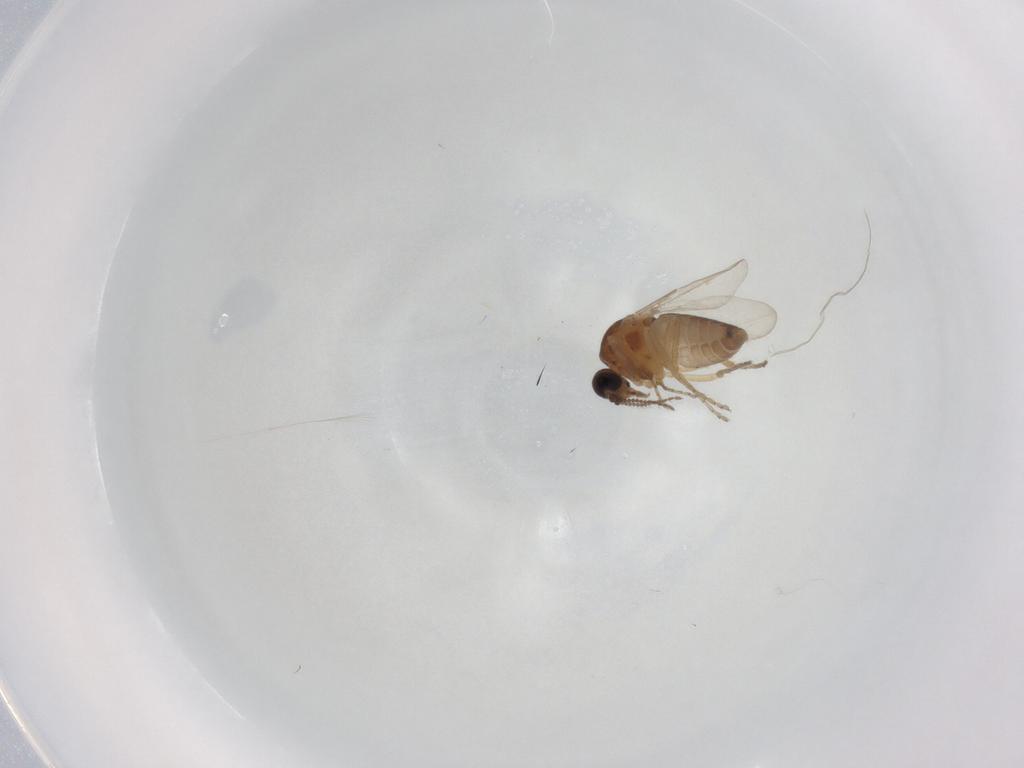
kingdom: Animalia
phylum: Arthropoda
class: Insecta
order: Diptera
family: Ceratopogonidae
